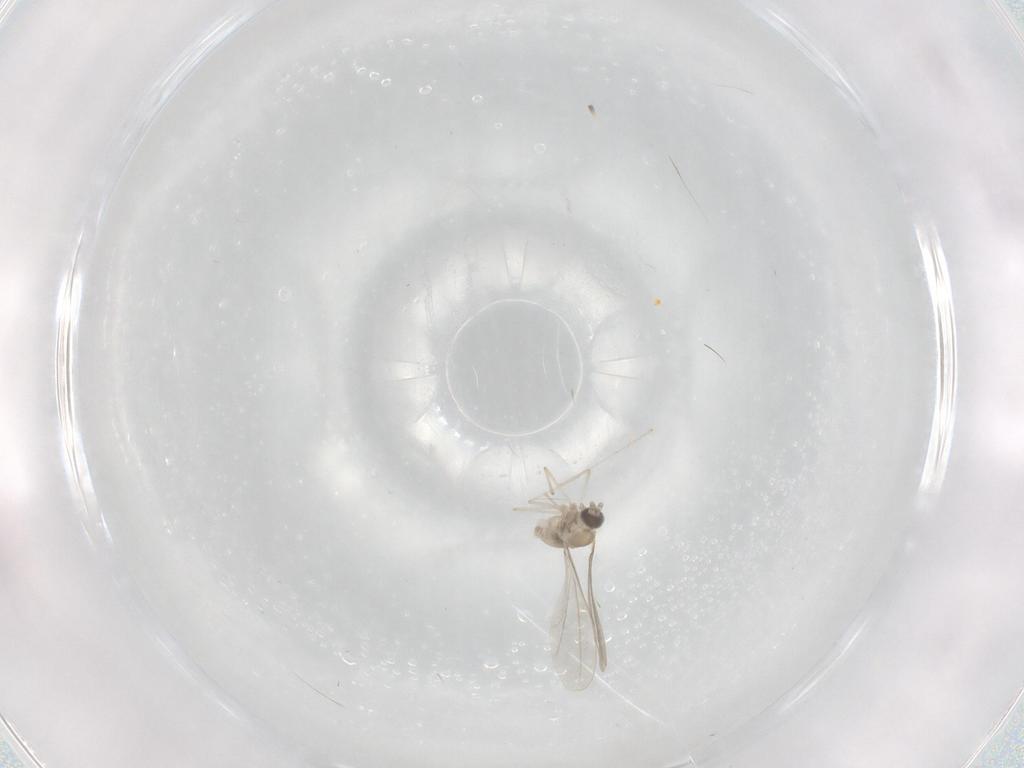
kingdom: Animalia
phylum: Arthropoda
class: Insecta
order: Diptera
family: Cecidomyiidae
